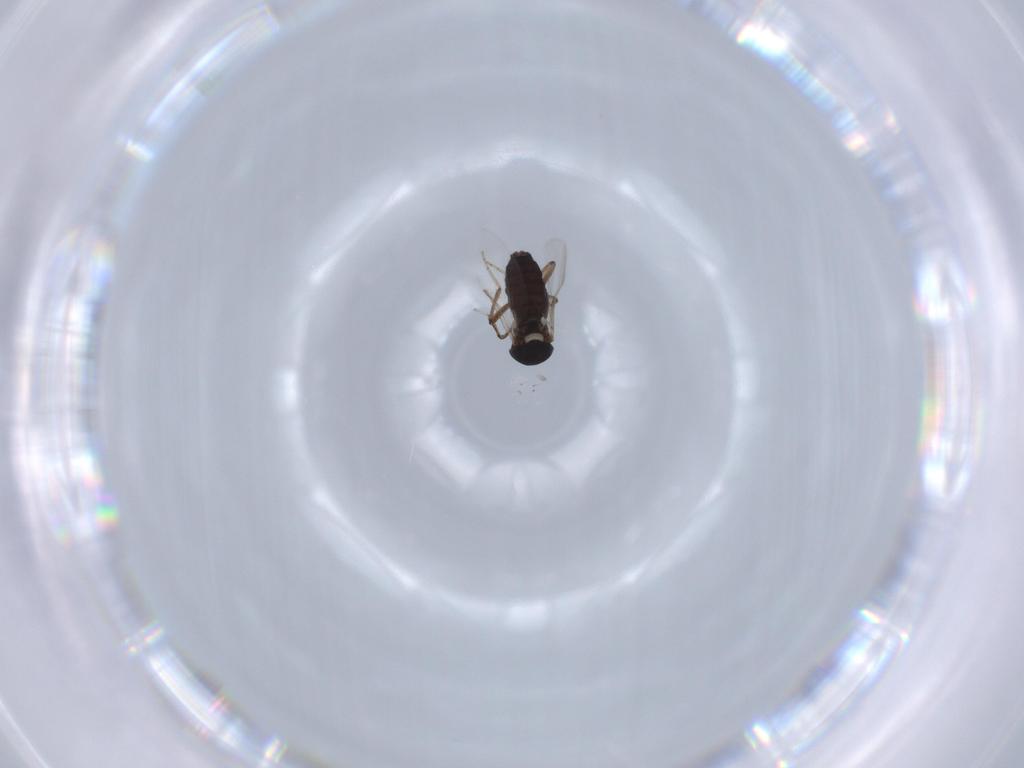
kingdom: Animalia
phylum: Arthropoda
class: Insecta
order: Diptera
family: Ceratopogonidae
